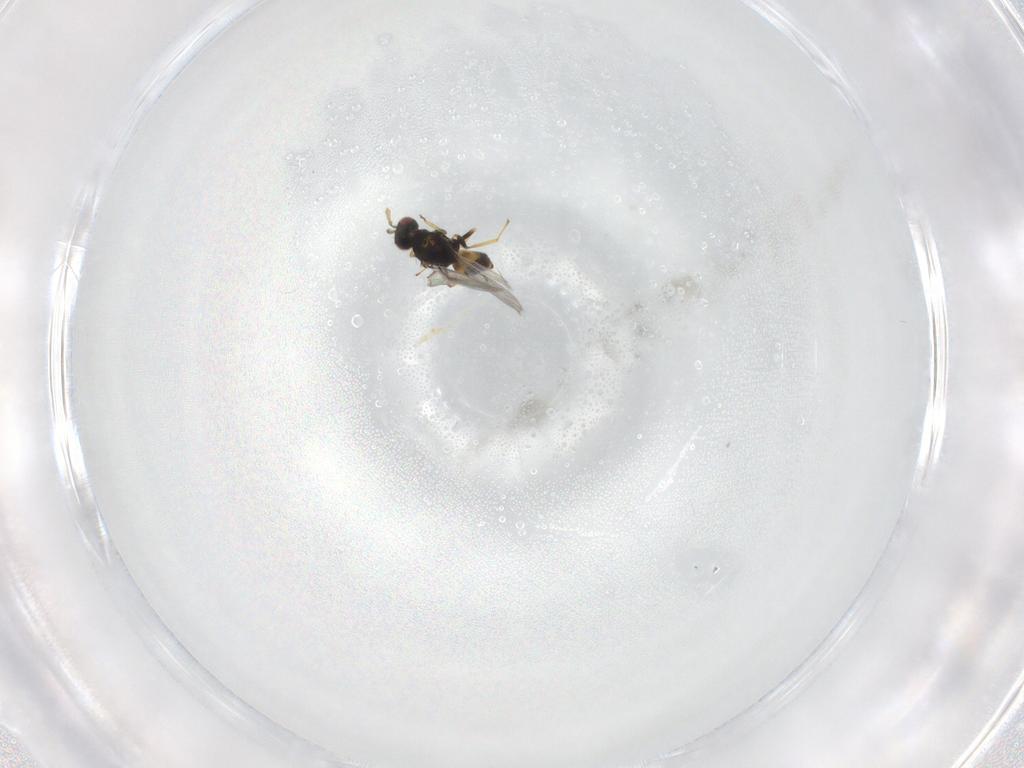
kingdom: Animalia
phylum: Arthropoda
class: Insecta
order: Hymenoptera
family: Eulophidae
